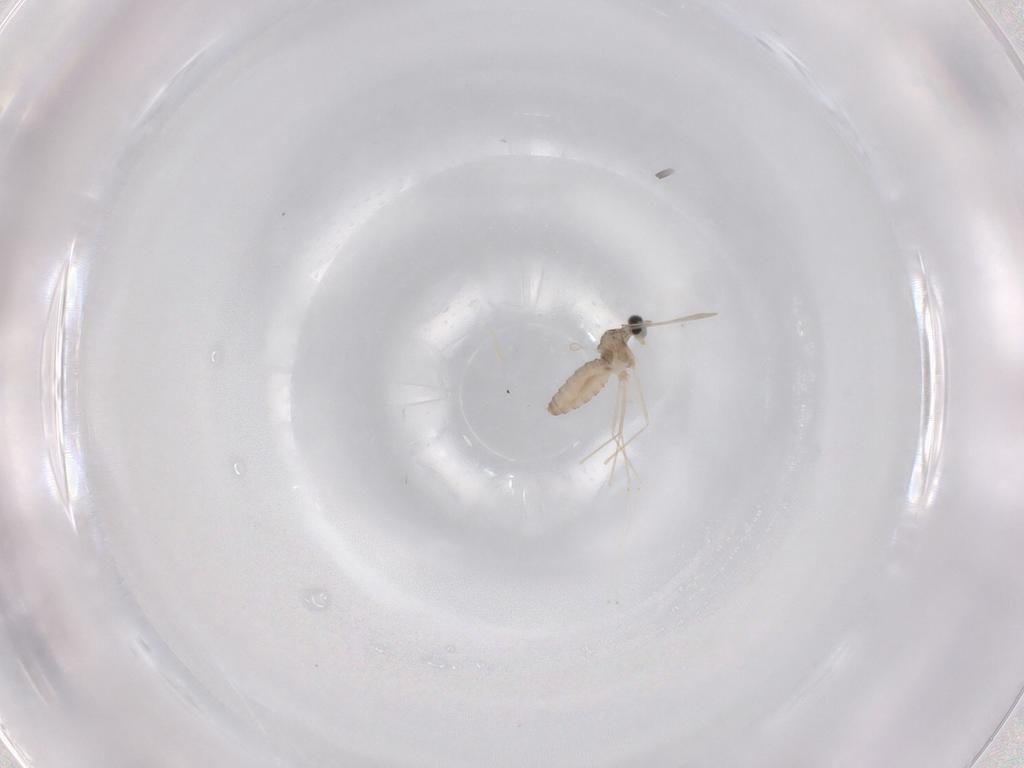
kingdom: Animalia
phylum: Arthropoda
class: Insecta
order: Diptera
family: Cecidomyiidae
